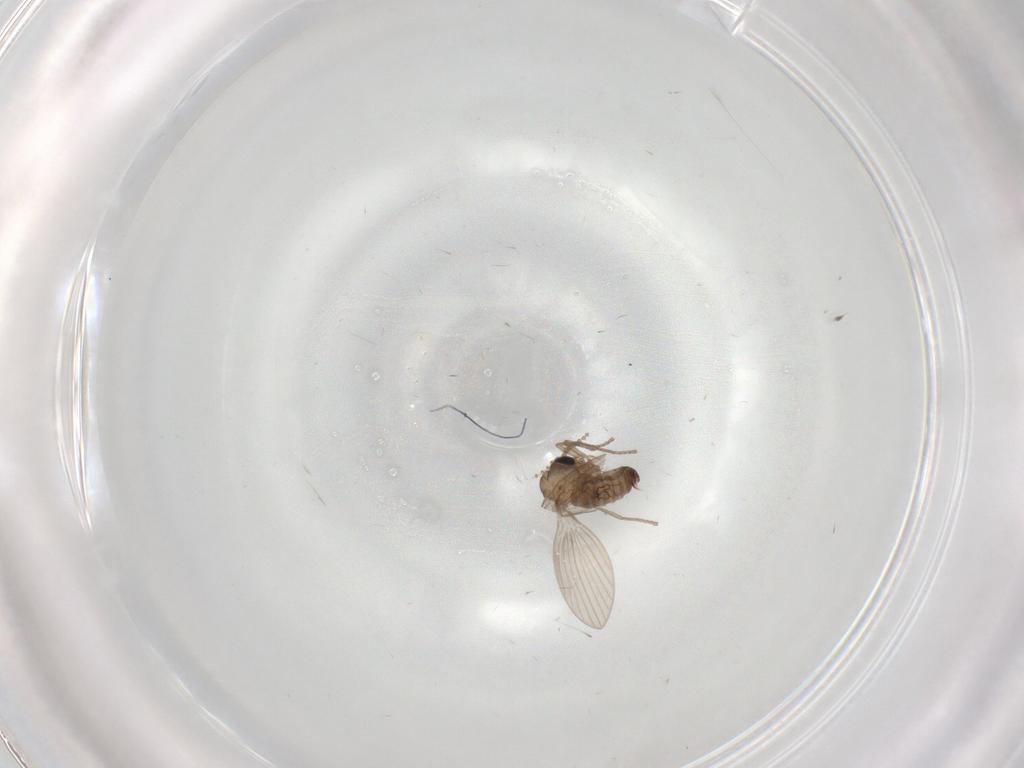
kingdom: Animalia
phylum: Arthropoda
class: Insecta
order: Diptera
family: Psychodidae
